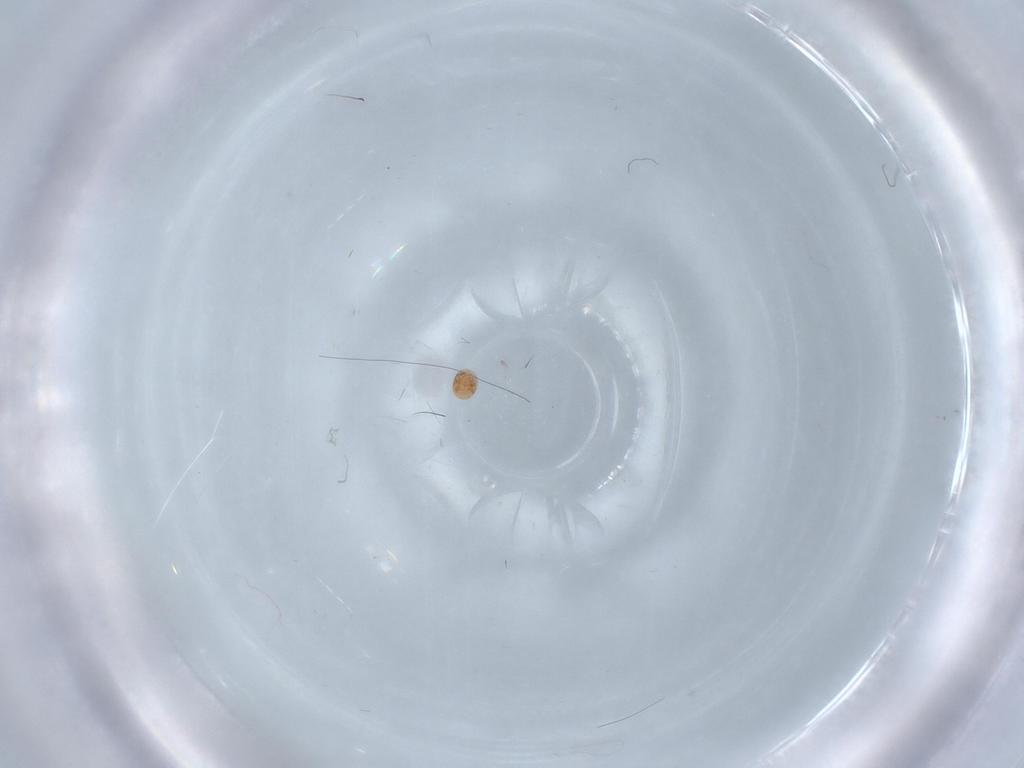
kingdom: Animalia
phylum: Arthropoda
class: Arachnida
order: Trombidiformes
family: Scutacaridae
